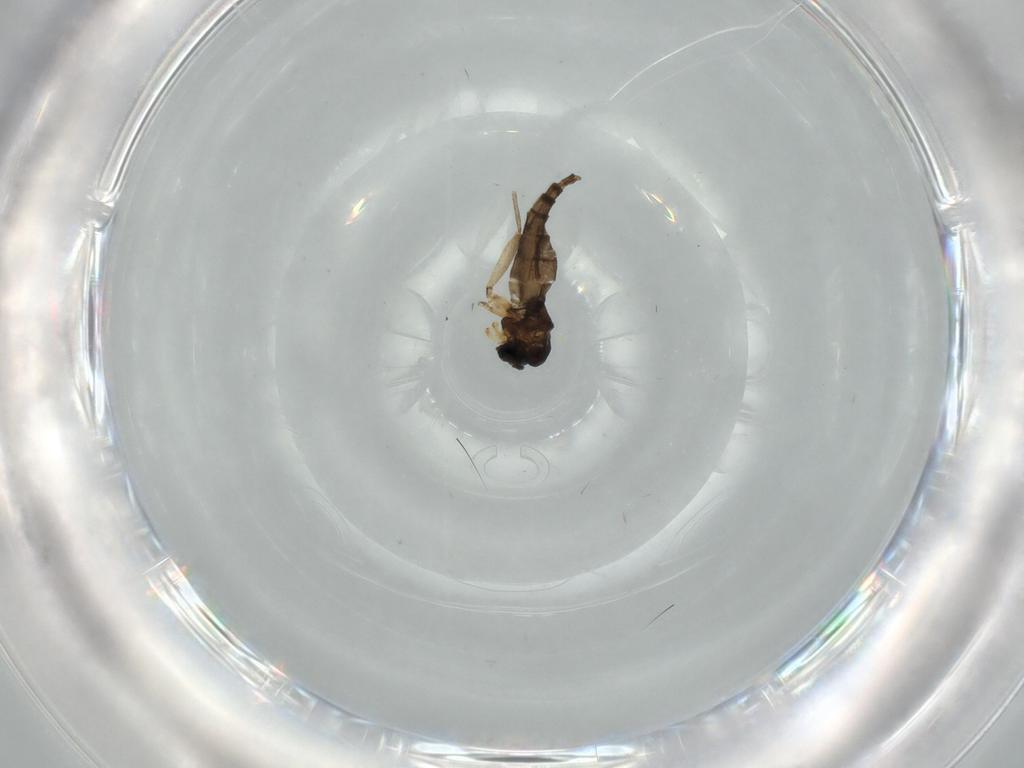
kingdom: Animalia
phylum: Arthropoda
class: Insecta
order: Diptera
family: Sciaridae
